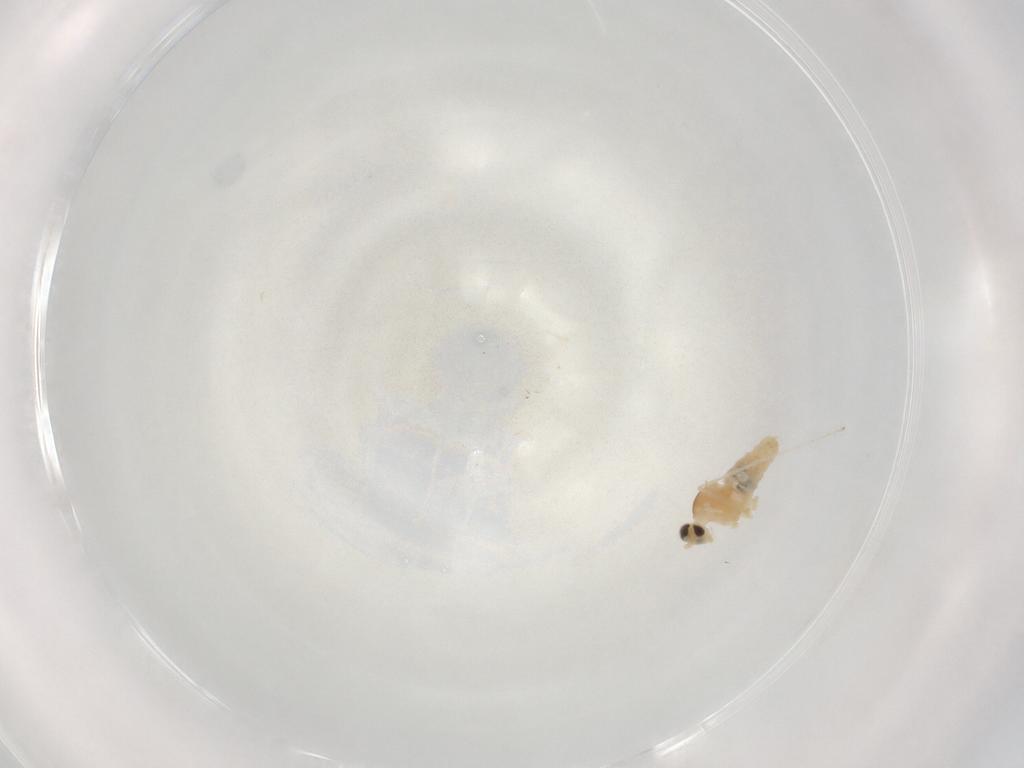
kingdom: Animalia
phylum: Arthropoda
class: Insecta
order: Diptera
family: Cecidomyiidae
